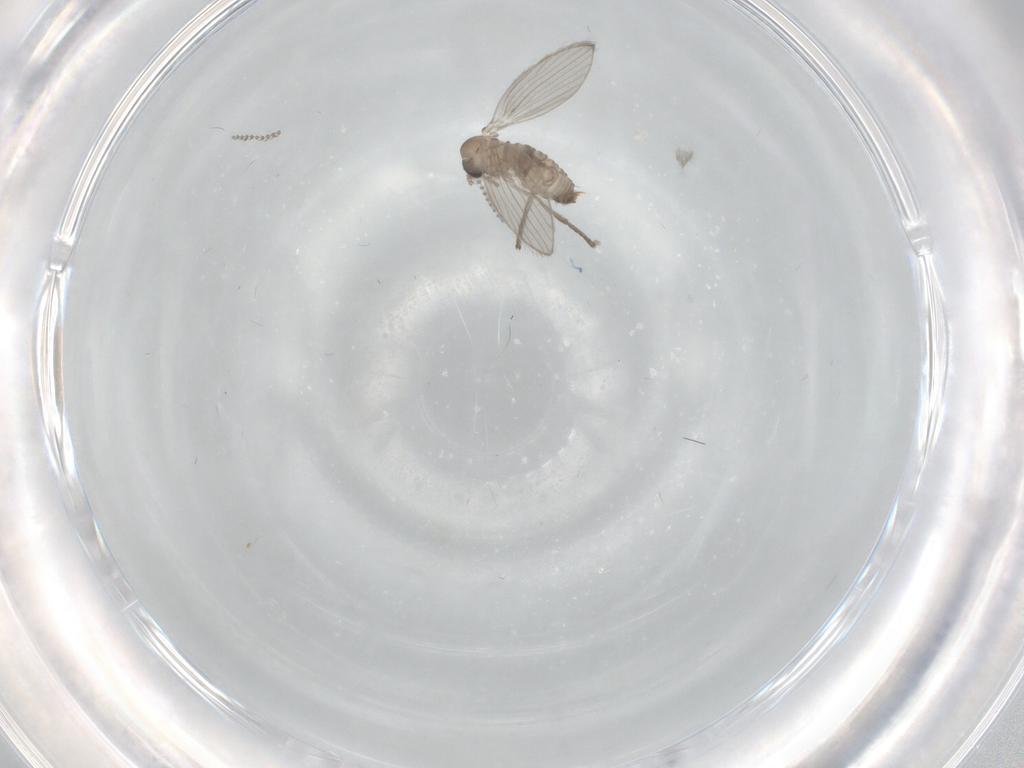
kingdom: Animalia
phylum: Arthropoda
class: Insecta
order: Diptera
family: Psychodidae
